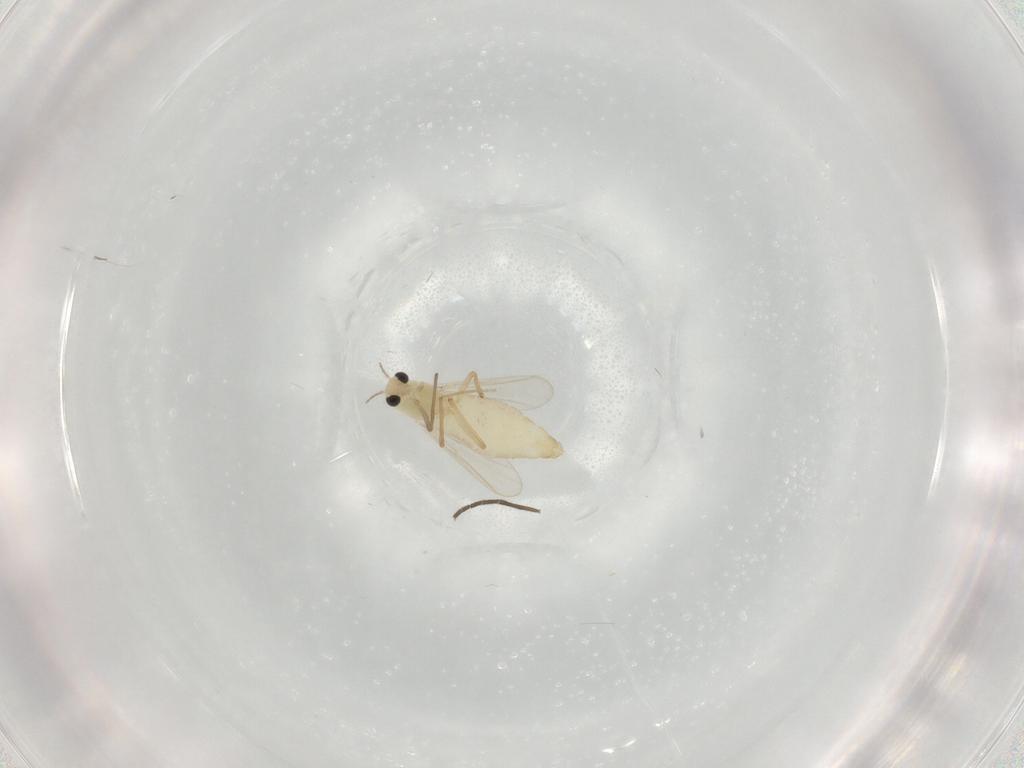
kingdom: Animalia
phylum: Arthropoda
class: Insecta
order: Diptera
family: Chironomidae
